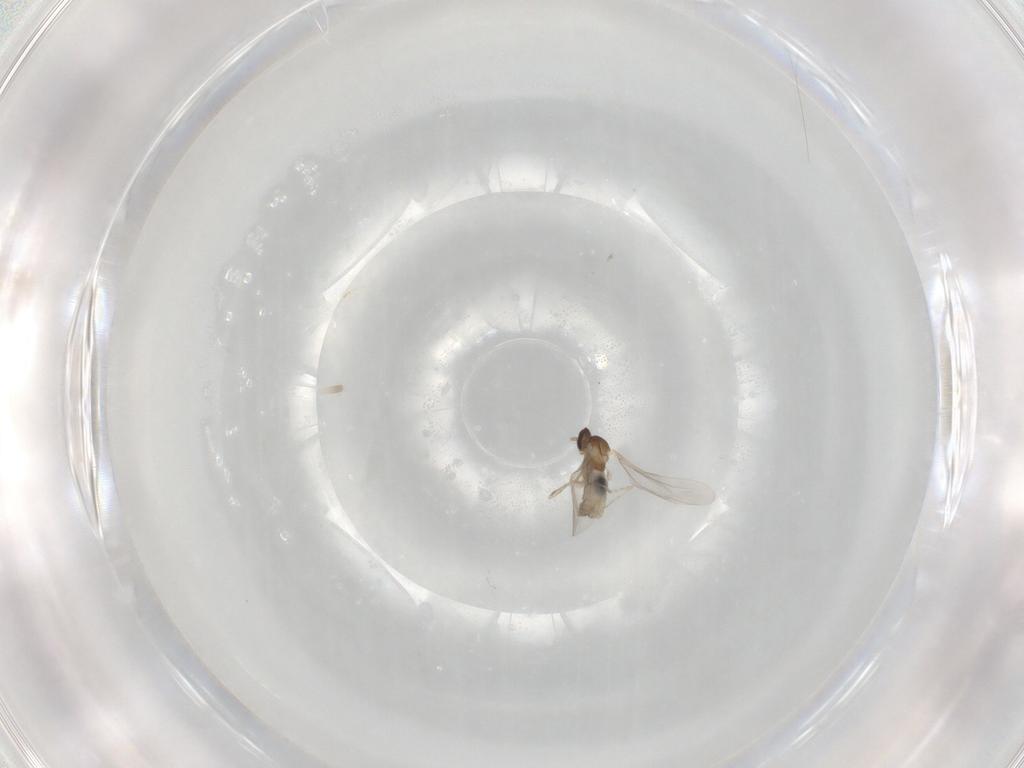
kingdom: Animalia
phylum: Arthropoda
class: Insecta
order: Diptera
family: Cecidomyiidae
